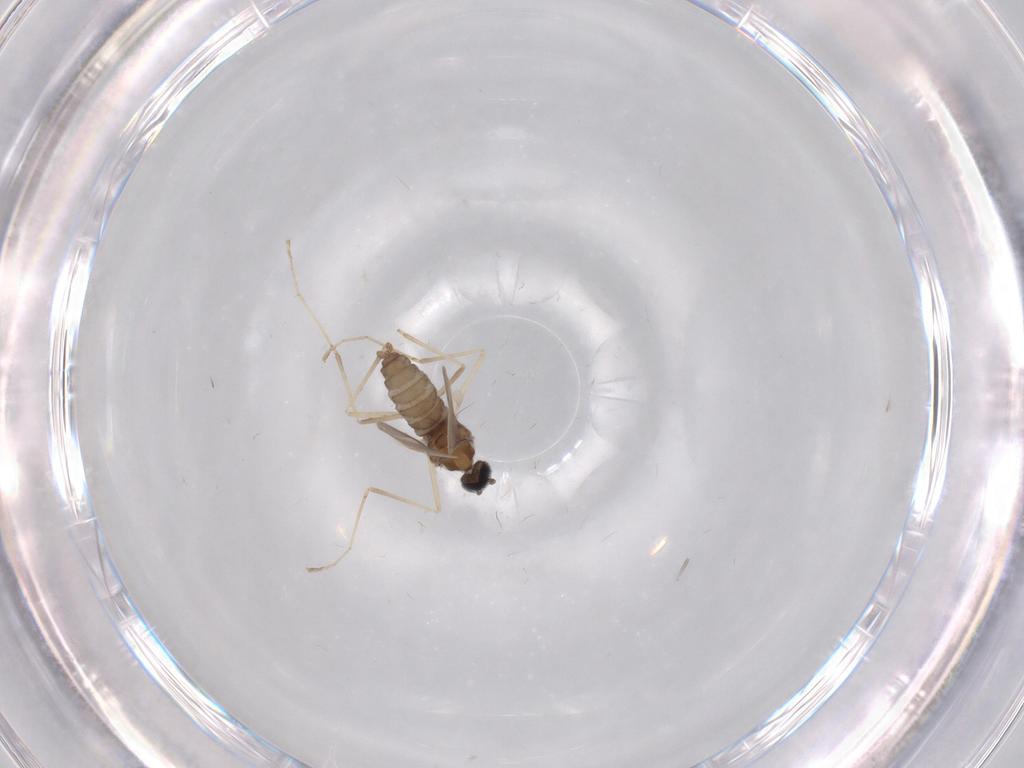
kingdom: Animalia
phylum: Arthropoda
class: Insecta
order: Diptera
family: Cecidomyiidae
